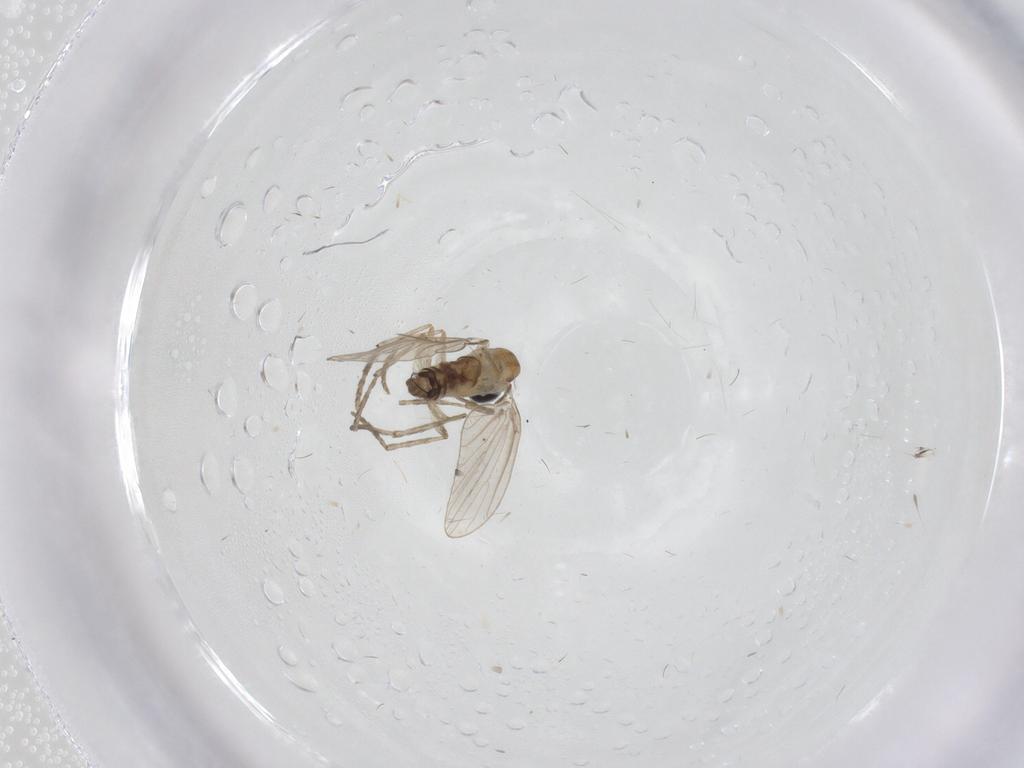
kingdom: Animalia
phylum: Arthropoda
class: Insecta
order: Diptera
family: Psychodidae
